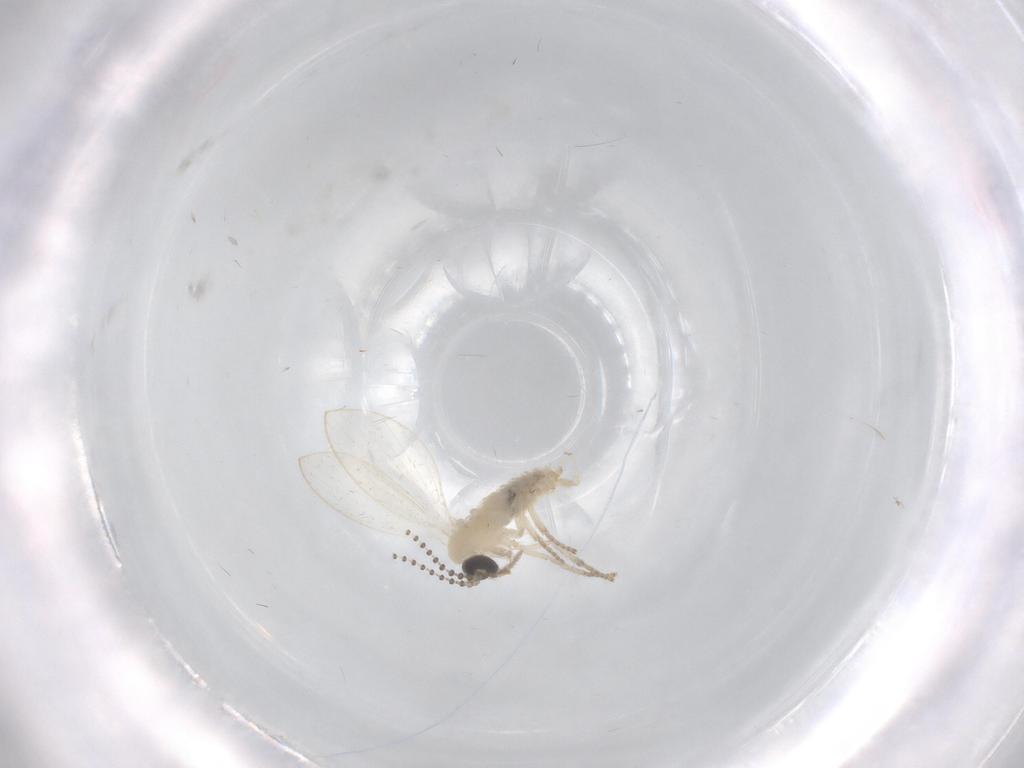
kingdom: Animalia
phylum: Arthropoda
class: Insecta
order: Diptera
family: Psychodidae
